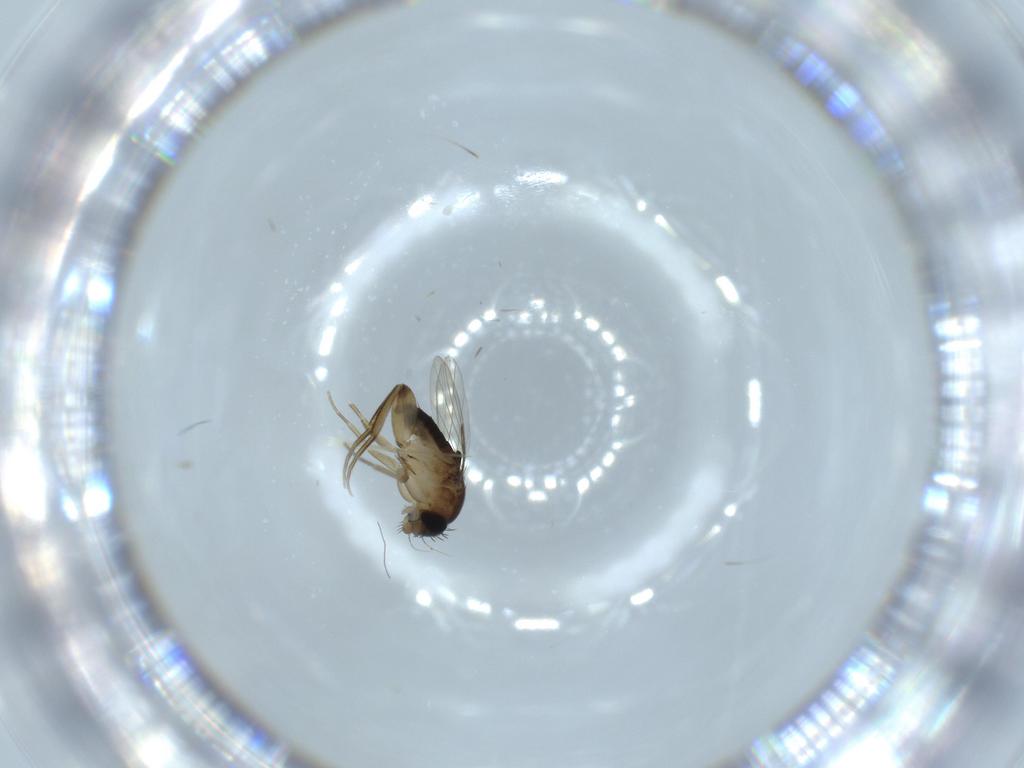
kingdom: Animalia
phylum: Arthropoda
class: Insecta
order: Diptera
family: Phoridae
